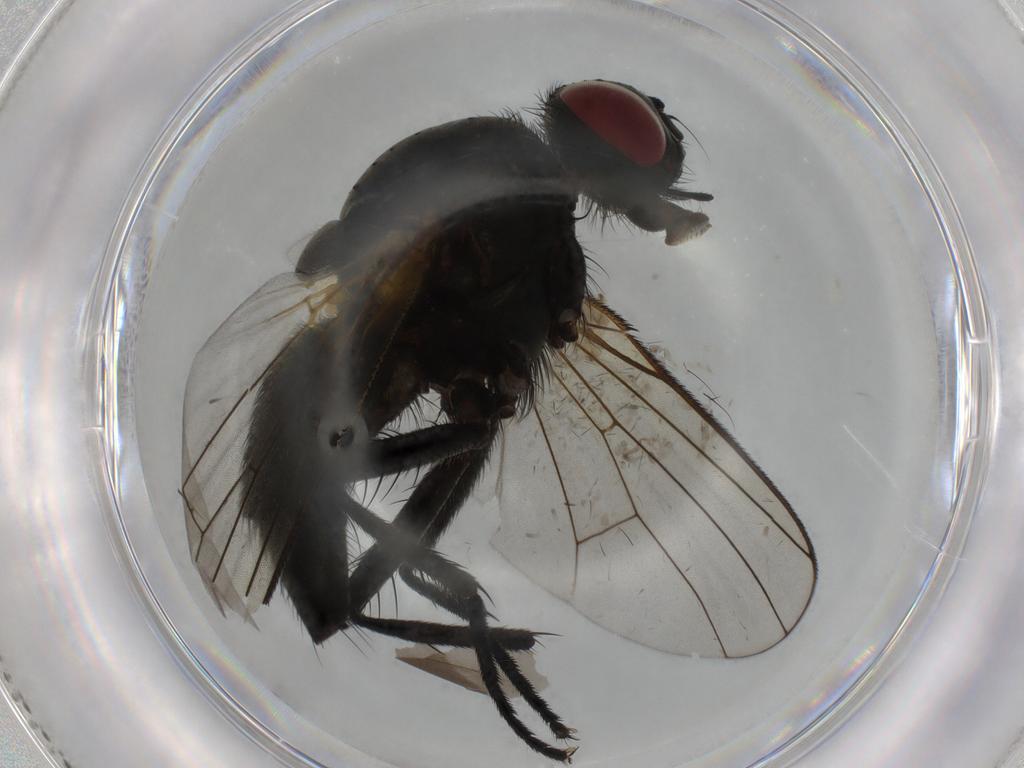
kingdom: Animalia
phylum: Arthropoda
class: Insecta
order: Diptera
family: Muscidae
